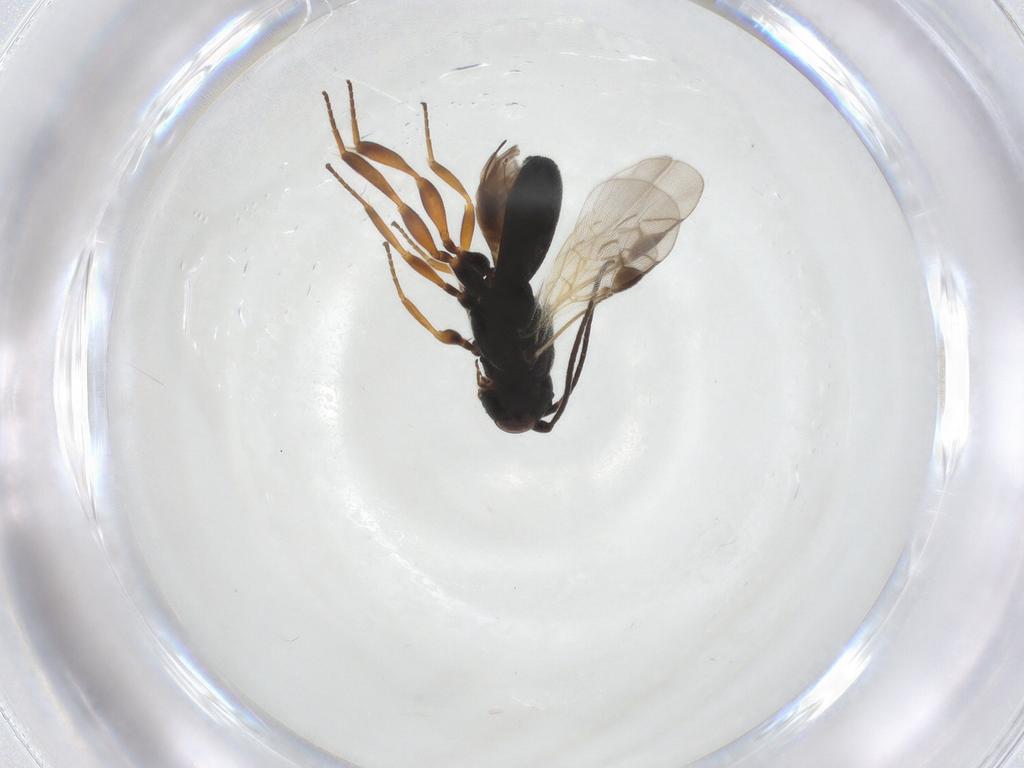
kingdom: Animalia
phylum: Arthropoda
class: Insecta
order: Hymenoptera
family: Braconidae
